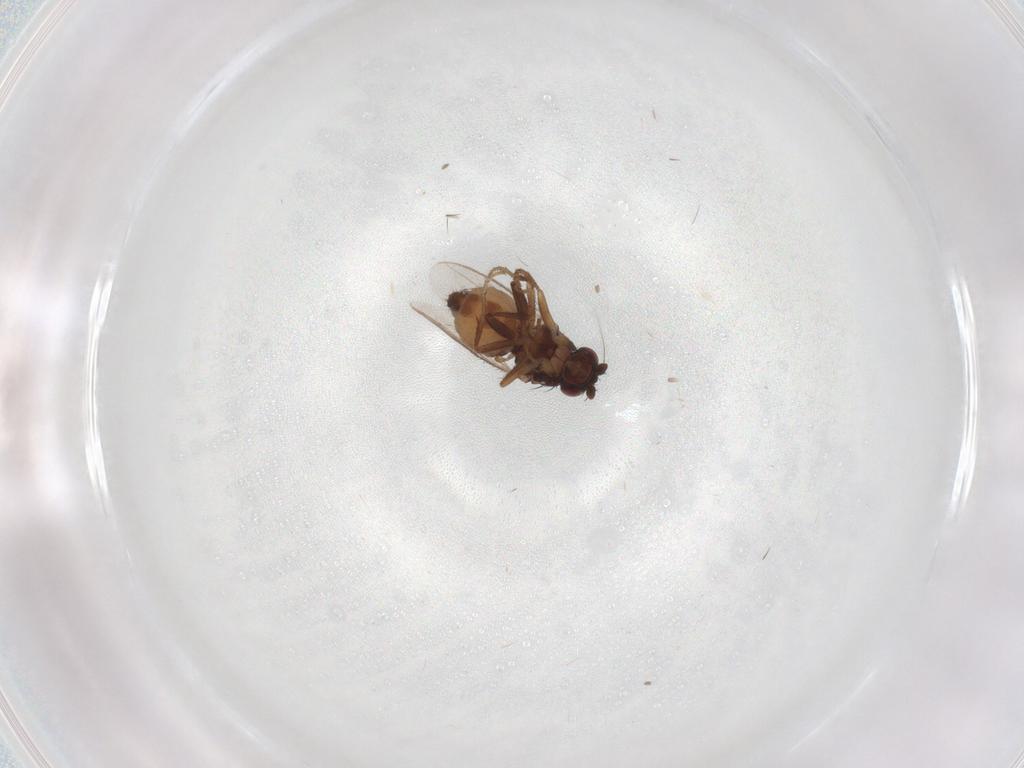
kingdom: Animalia
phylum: Arthropoda
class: Insecta
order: Diptera
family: Sphaeroceridae
